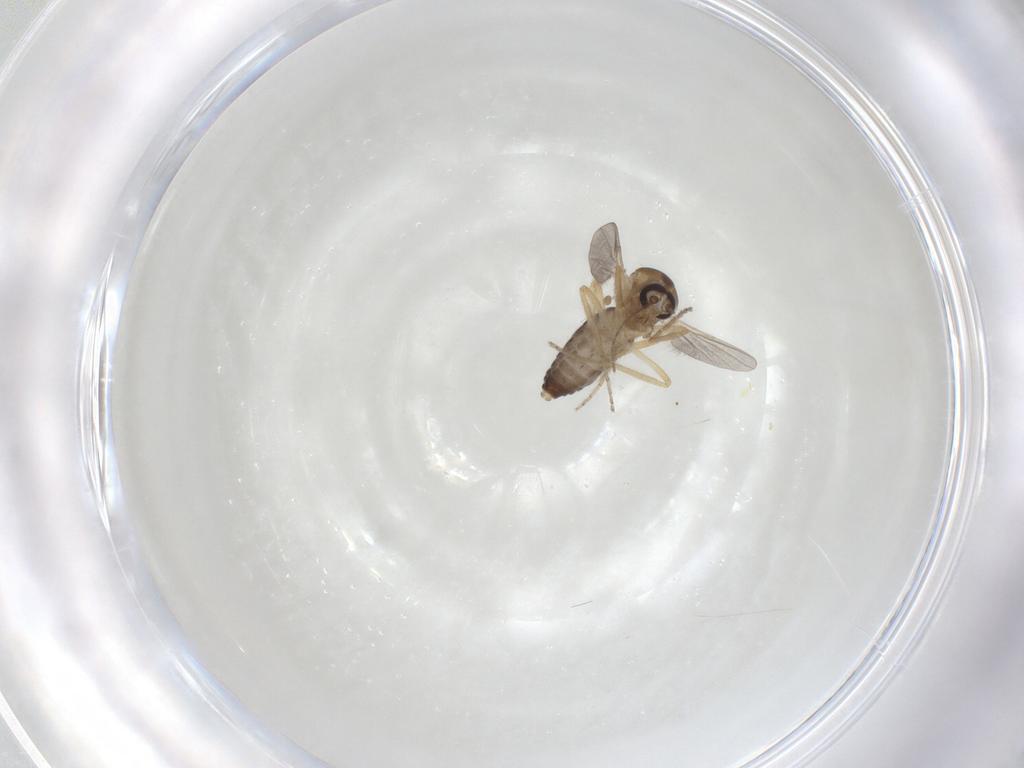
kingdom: Animalia
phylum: Arthropoda
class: Insecta
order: Diptera
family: Ceratopogonidae
